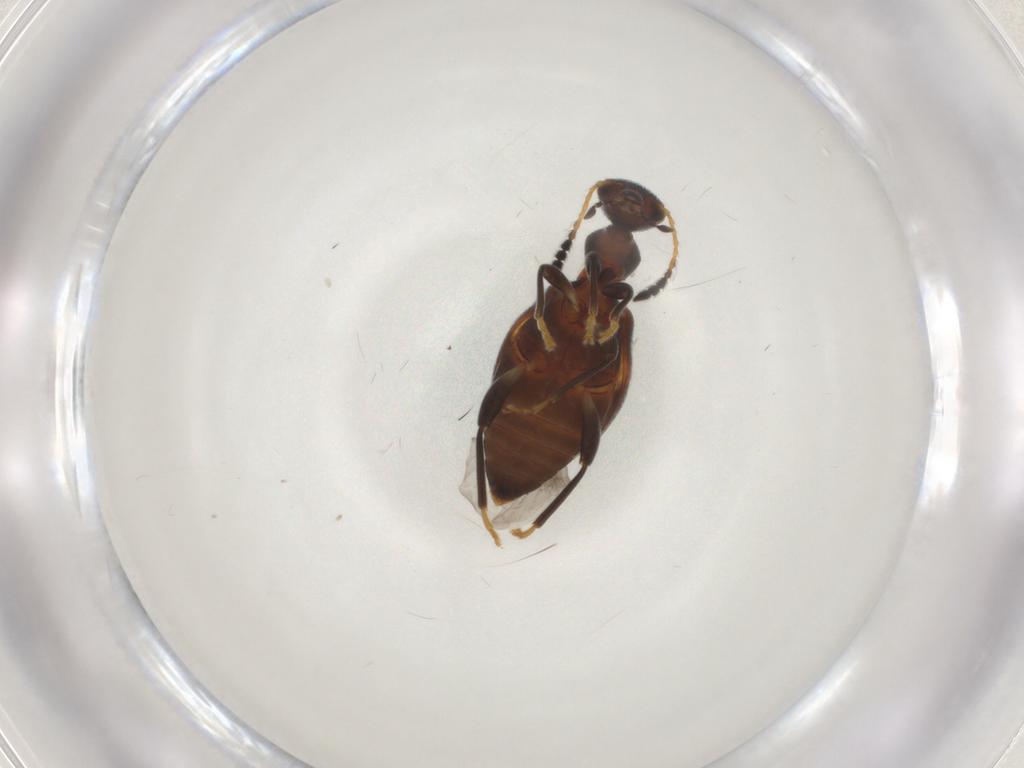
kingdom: Animalia
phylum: Arthropoda
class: Insecta
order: Coleoptera
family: Anthicidae
